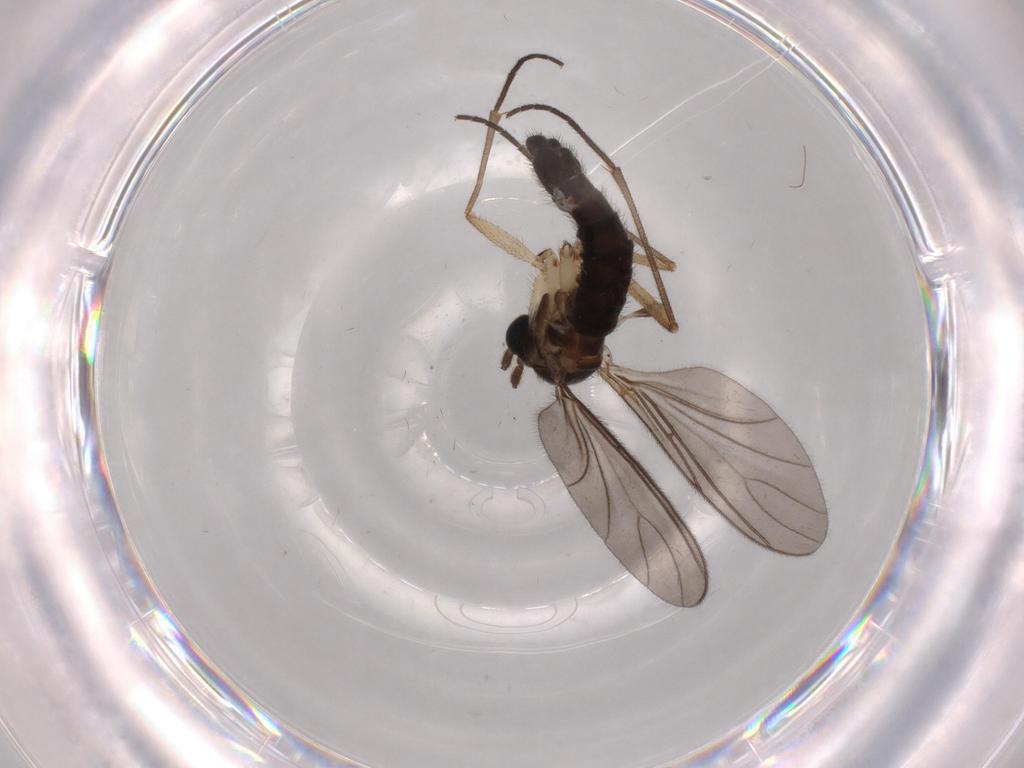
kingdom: Animalia
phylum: Arthropoda
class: Insecta
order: Diptera
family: Sciaridae
